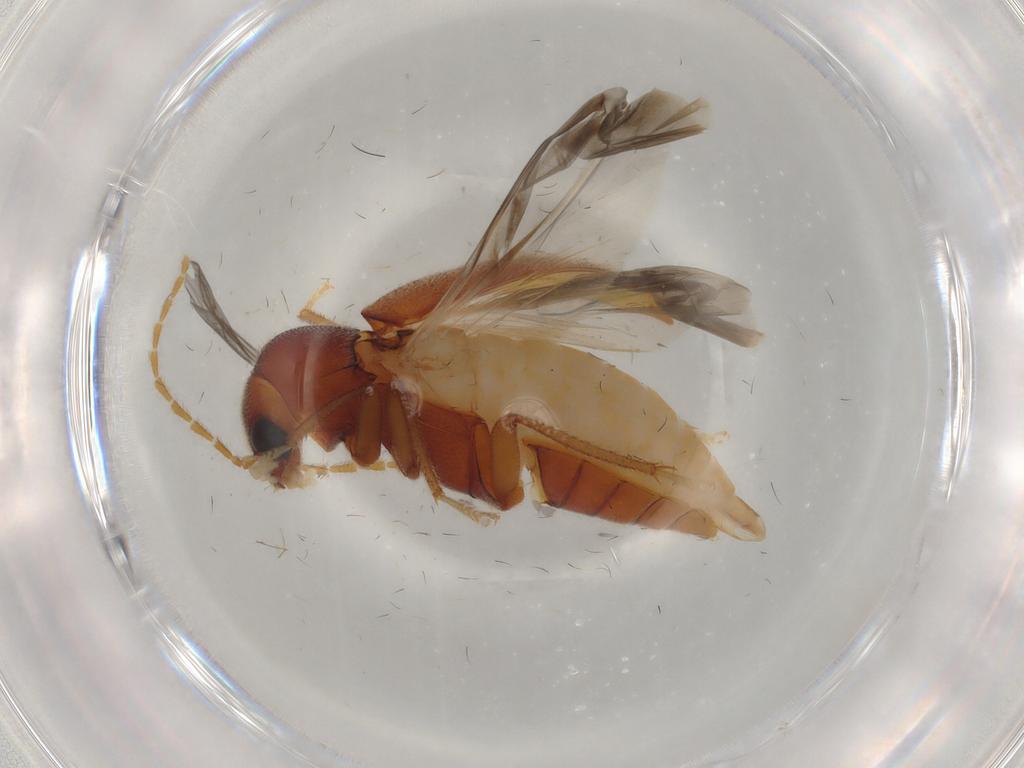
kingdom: Animalia
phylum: Arthropoda
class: Insecta
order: Coleoptera
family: Ptilodactylidae
